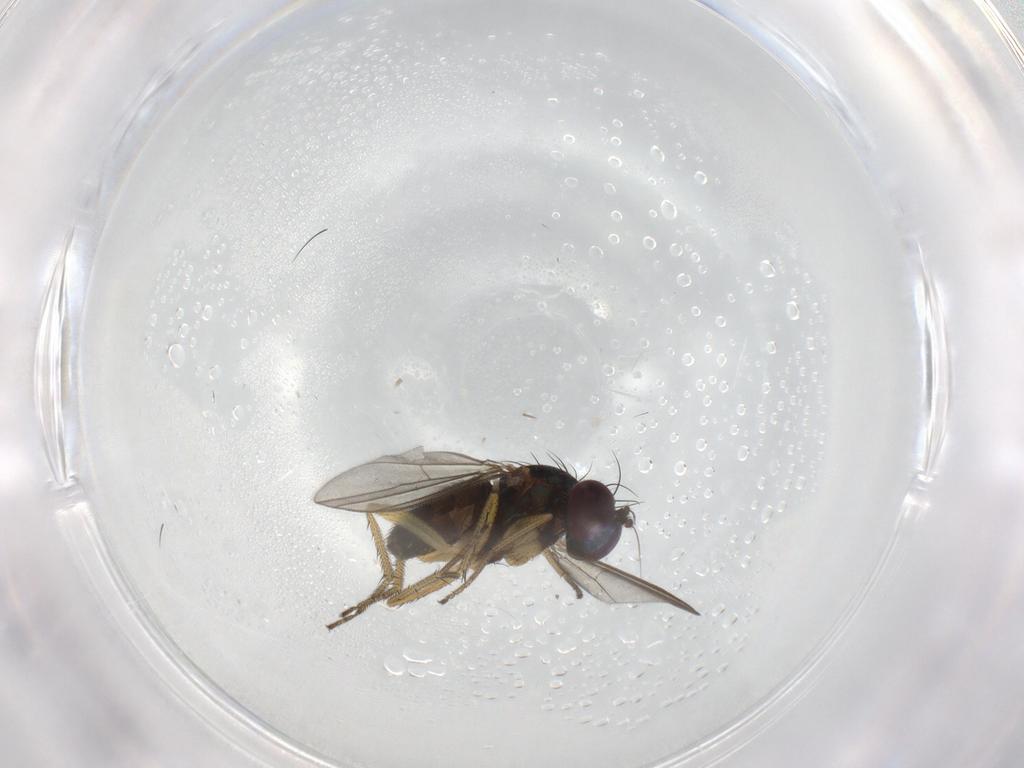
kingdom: Animalia
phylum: Arthropoda
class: Insecta
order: Diptera
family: Dolichopodidae
